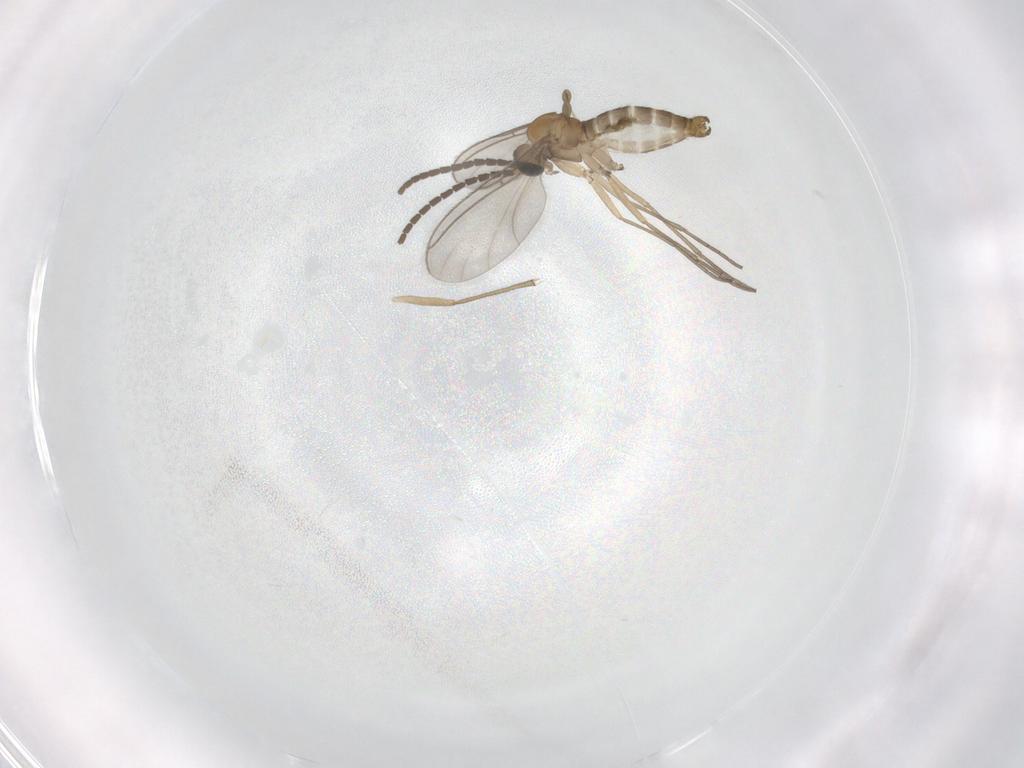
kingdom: Animalia
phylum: Arthropoda
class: Insecta
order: Diptera
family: Sciaridae
